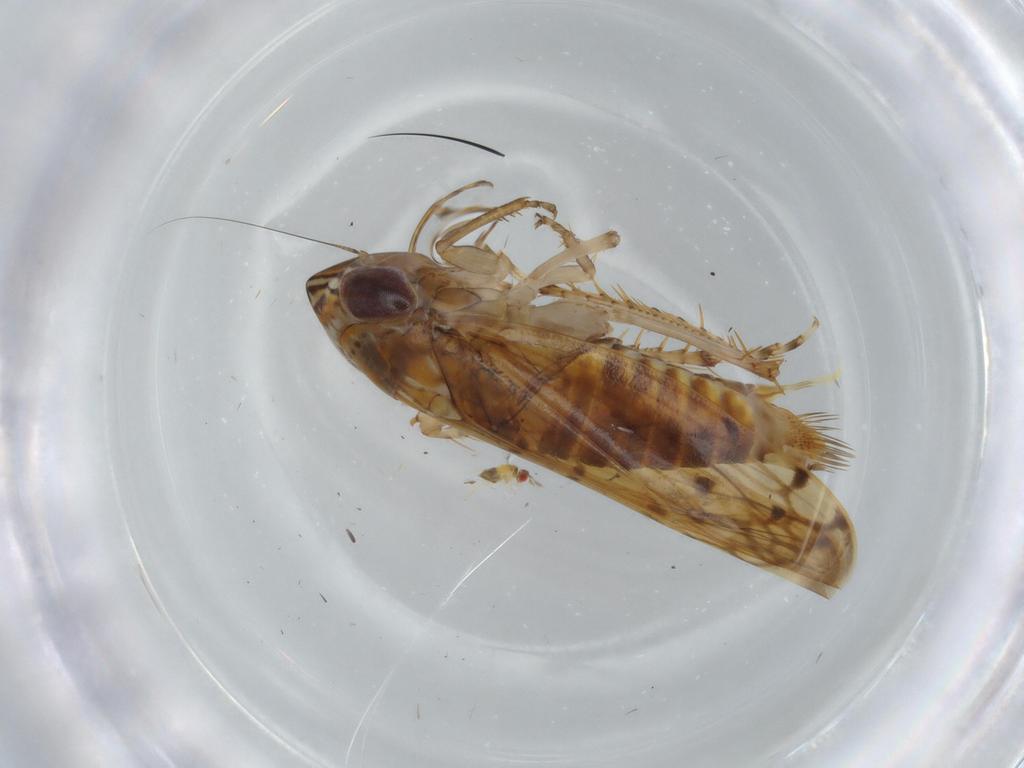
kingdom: Animalia
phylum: Arthropoda
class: Insecta
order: Hemiptera
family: Cicadellidae
